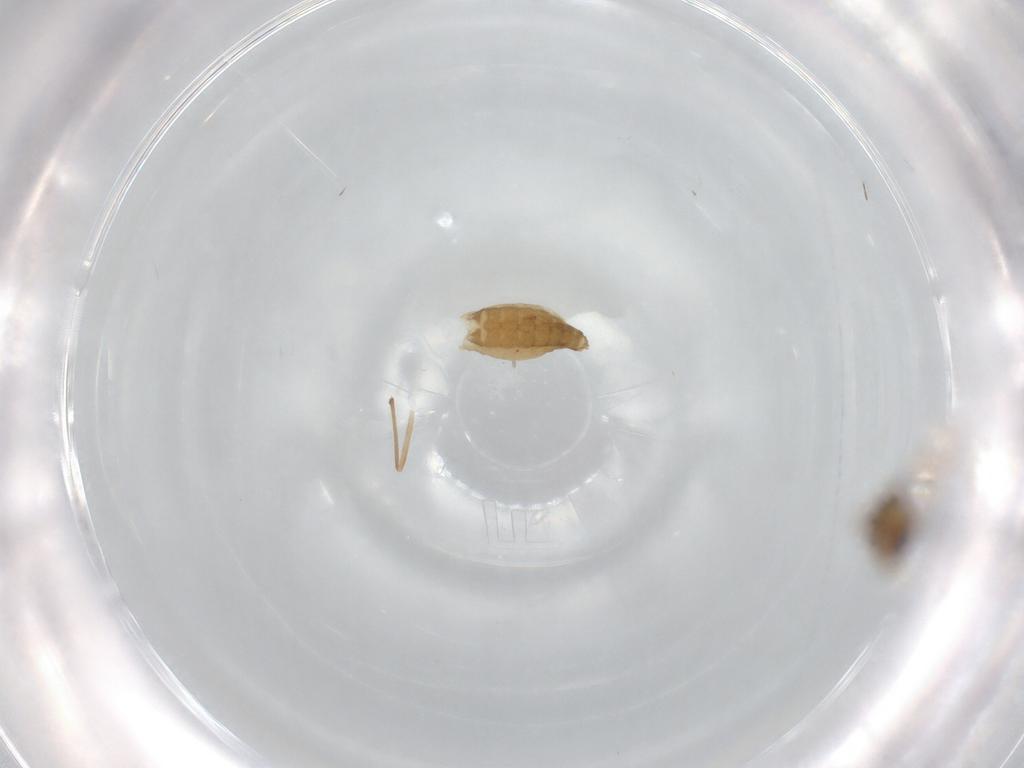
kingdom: Animalia
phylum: Arthropoda
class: Insecta
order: Diptera
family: Chironomidae
